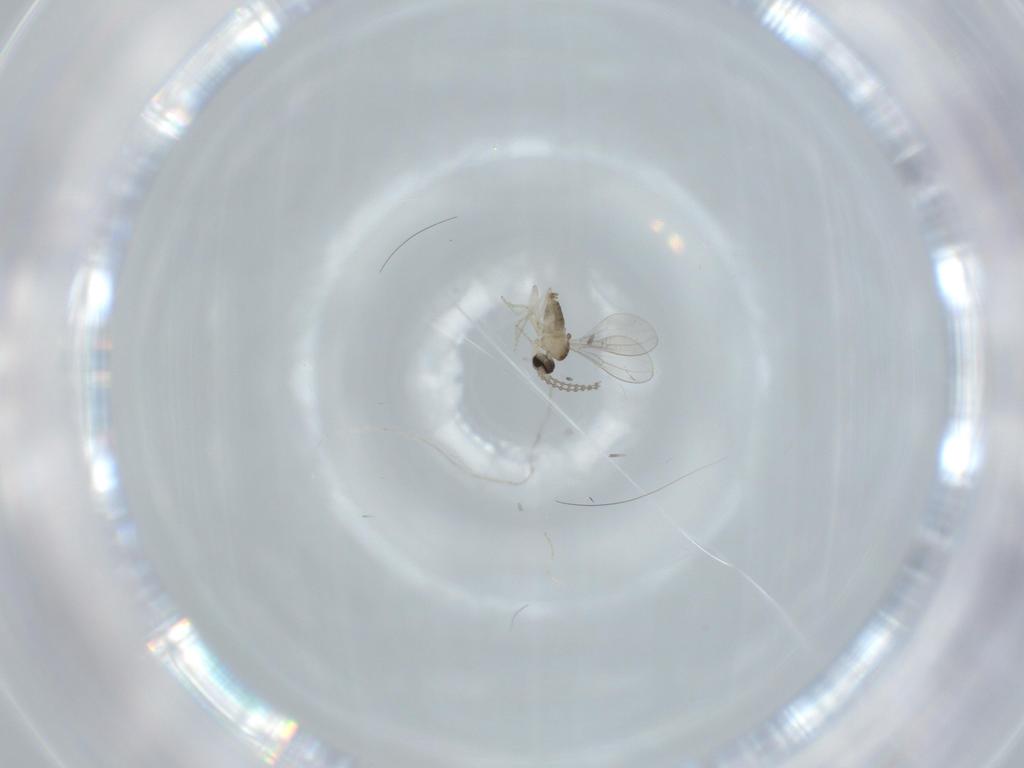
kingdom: Animalia
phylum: Arthropoda
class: Insecta
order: Diptera
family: Cecidomyiidae
